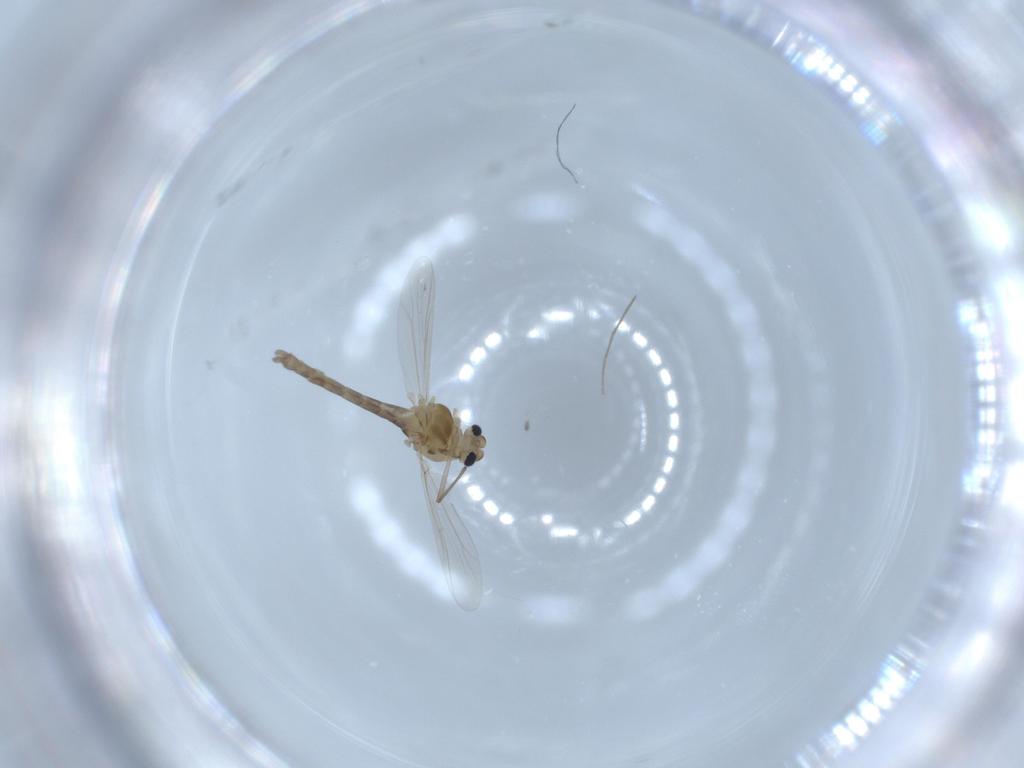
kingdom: Animalia
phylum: Arthropoda
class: Insecta
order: Diptera
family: Chironomidae
